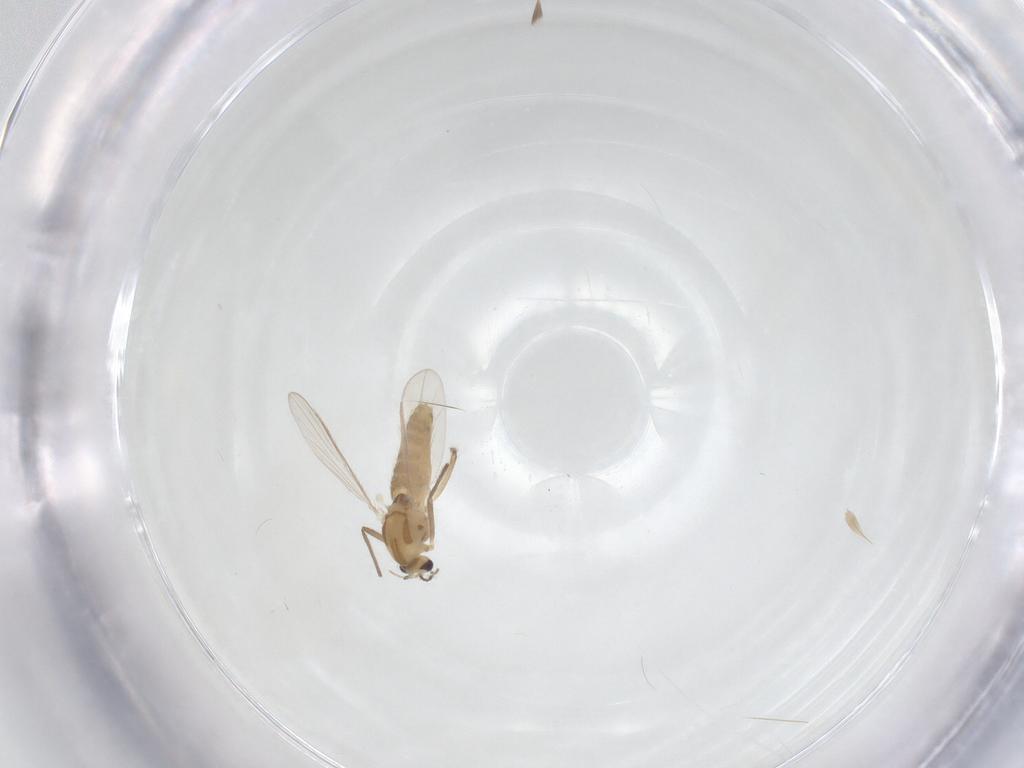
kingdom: Animalia
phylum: Arthropoda
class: Insecta
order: Diptera
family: Chironomidae
